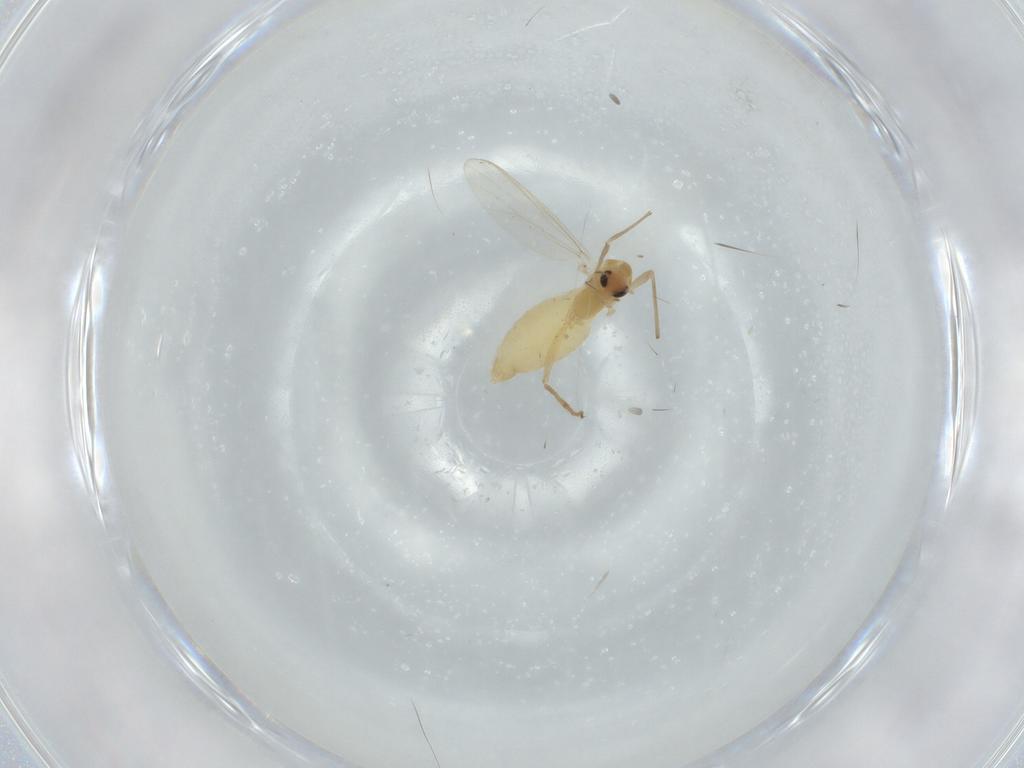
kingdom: Animalia
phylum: Arthropoda
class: Insecta
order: Diptera
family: Chironomidae
